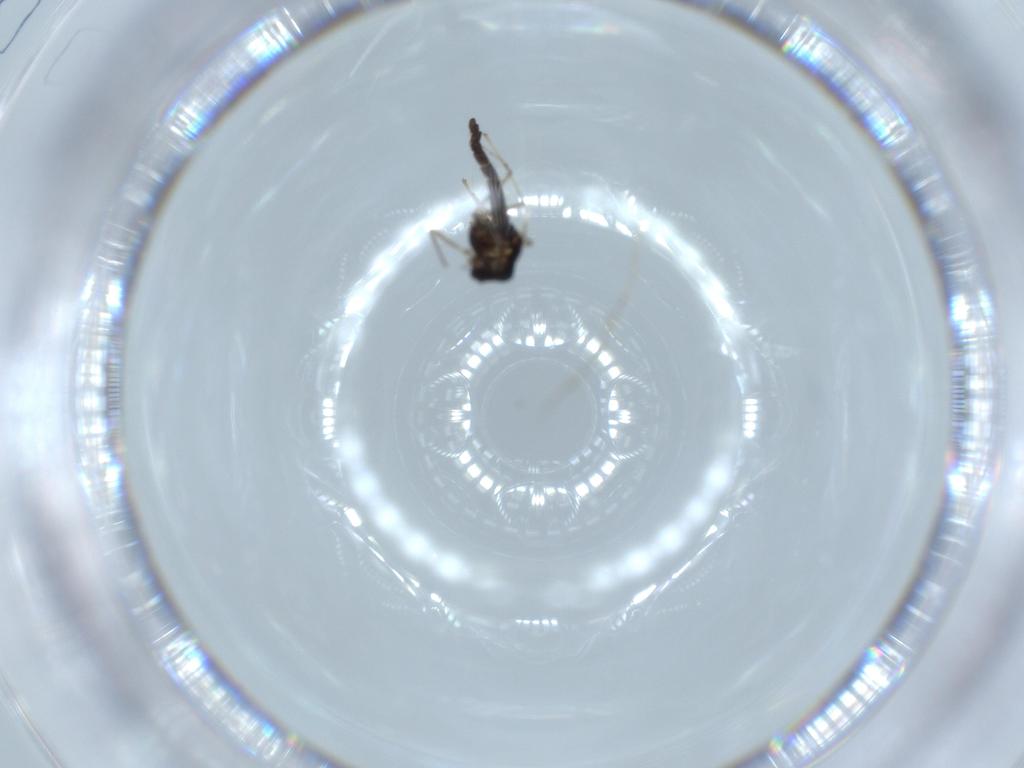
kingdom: Animalia
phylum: Arthropoda
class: Insecta
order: Diptera
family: Chironomidae
